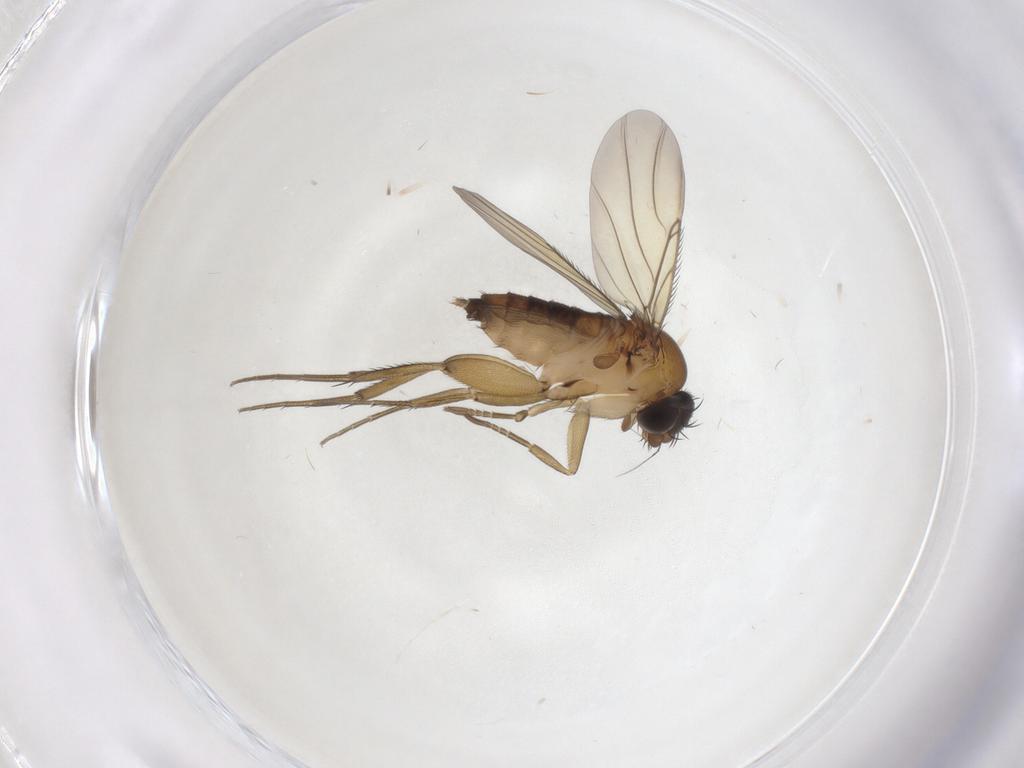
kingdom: Animalia
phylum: Arthropoda
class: Insecta
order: Diptera
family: Phoridae
